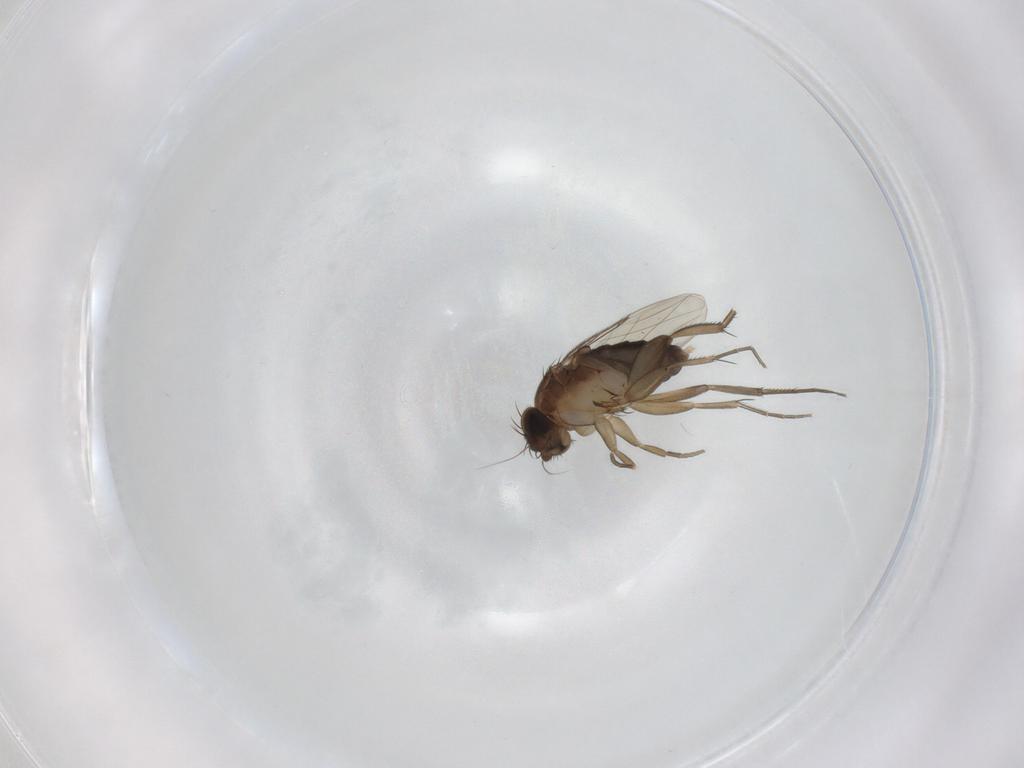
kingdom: Animalia
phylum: Arthropoda
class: Insecta
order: Diptera
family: Phoridae
